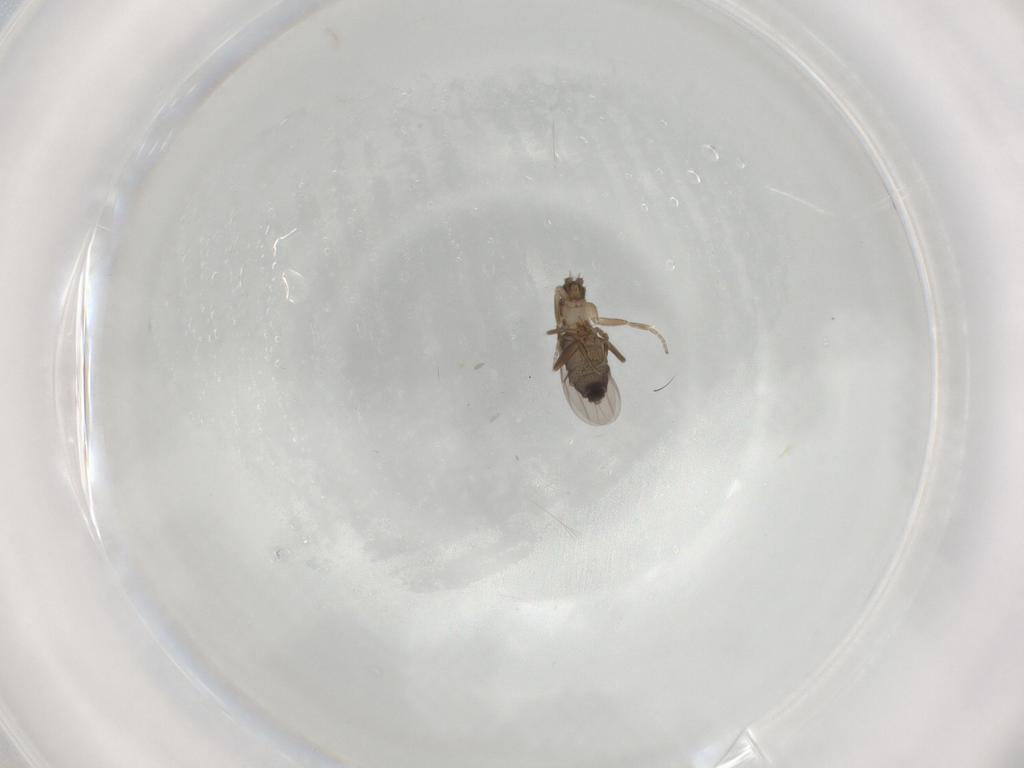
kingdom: Animalia
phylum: Arthropoda
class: Insecta
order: Diptera
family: Phoridae
